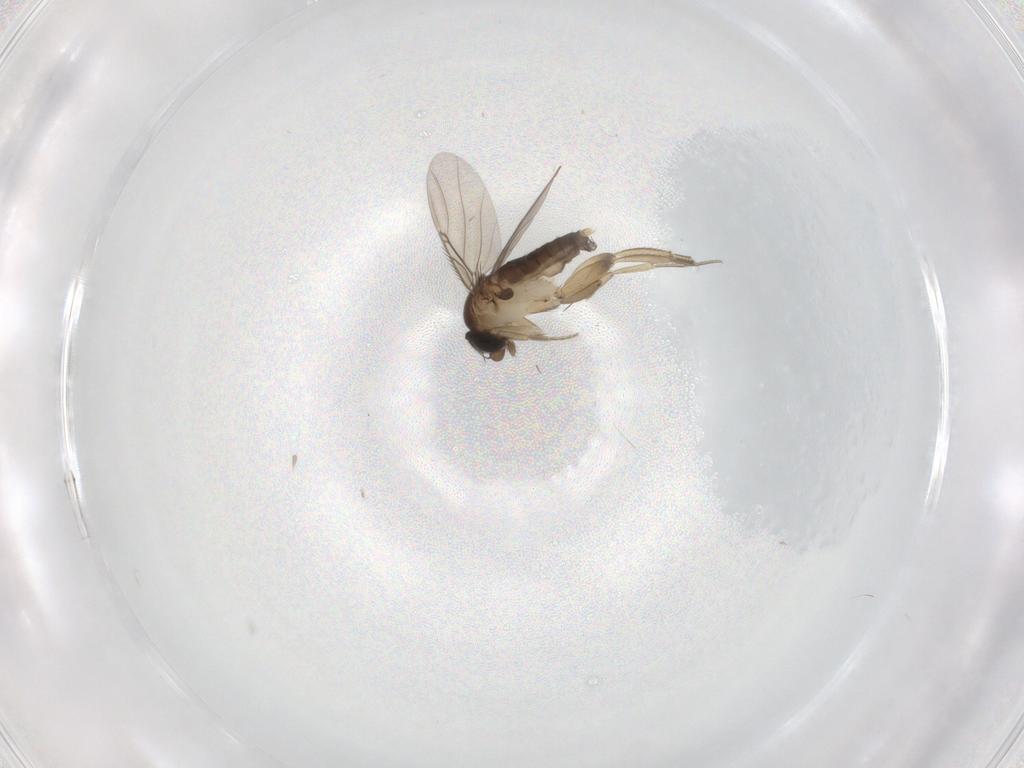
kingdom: Animalia
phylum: Arthropoda
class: Insecta
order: Diptera
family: Phoridae
